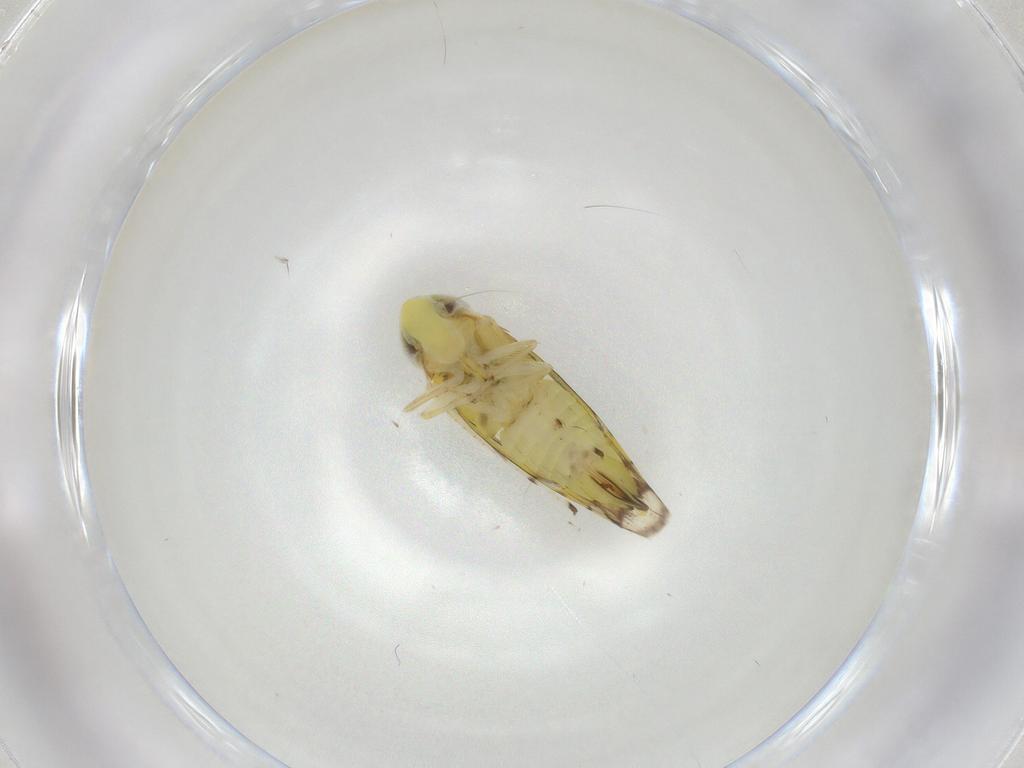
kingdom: Animalia
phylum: Arthropoda
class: Insecta
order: Hemiptera
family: Cicadellidae
